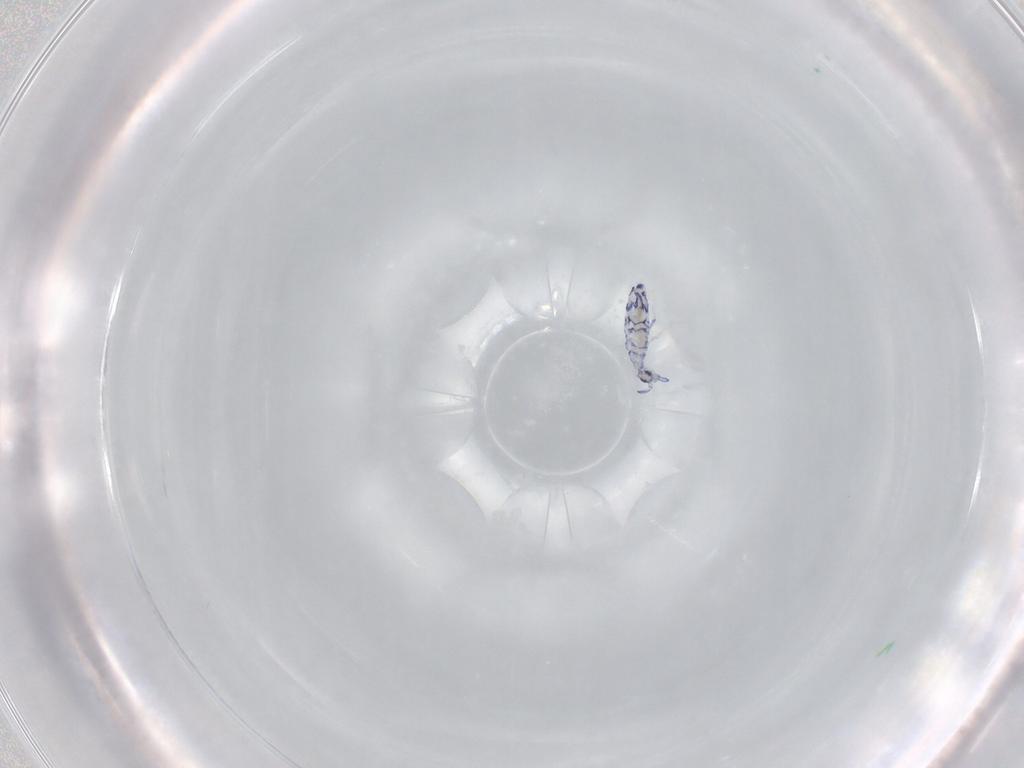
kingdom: Animalia
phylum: Arthropoda
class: Collembola
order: Entomobryomorpha
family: Entomobryidae
